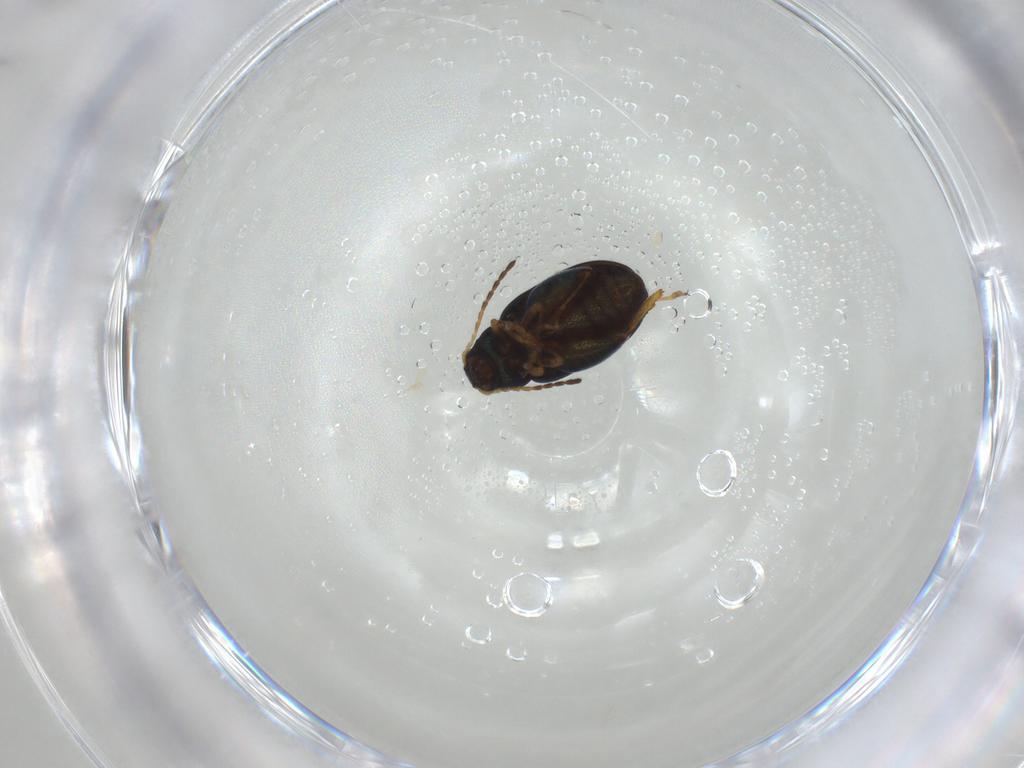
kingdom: Animalia
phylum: Arthropoda
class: Insecta
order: Coleoptera
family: Chrysomelidae
